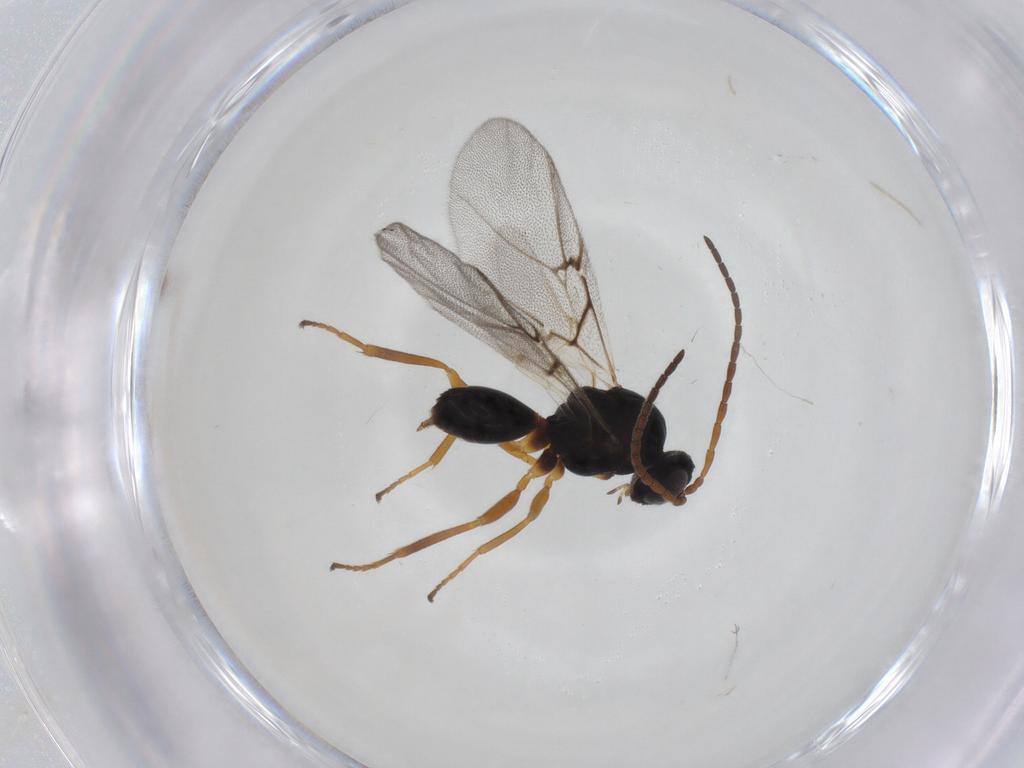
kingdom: Animalia
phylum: Arthropoda
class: Insecta
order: Hymenoptera
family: Cynipidae
